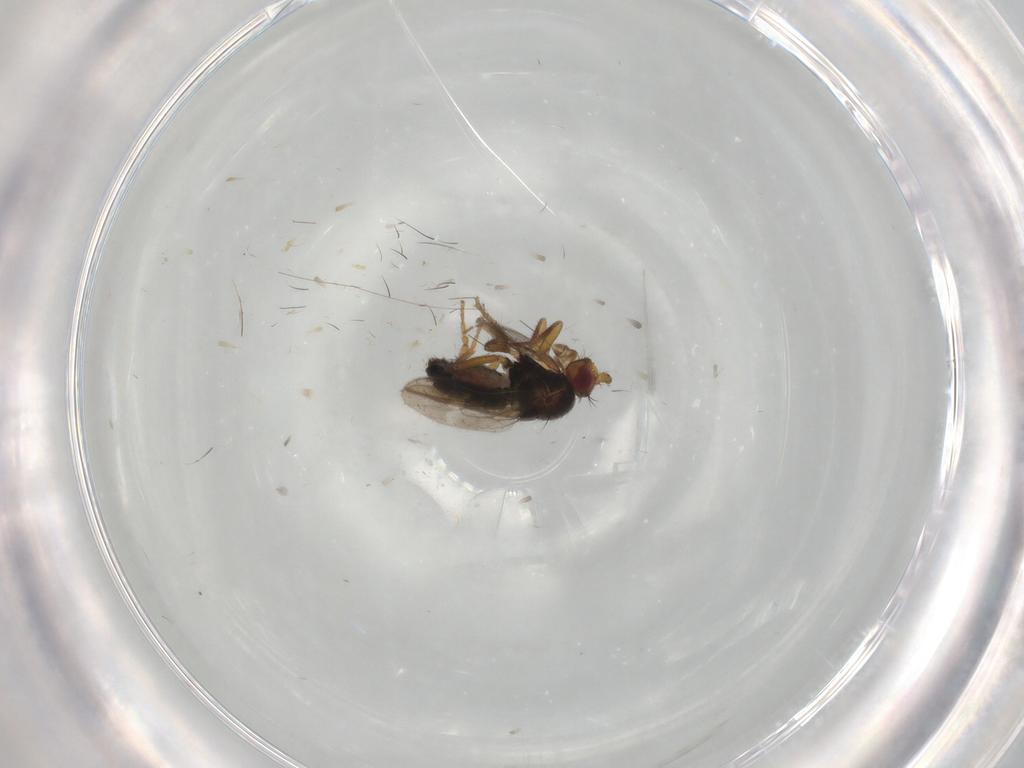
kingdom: Animalia
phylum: Arthropoda
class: Insecta
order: Diptera
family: Sphaeroceridae
